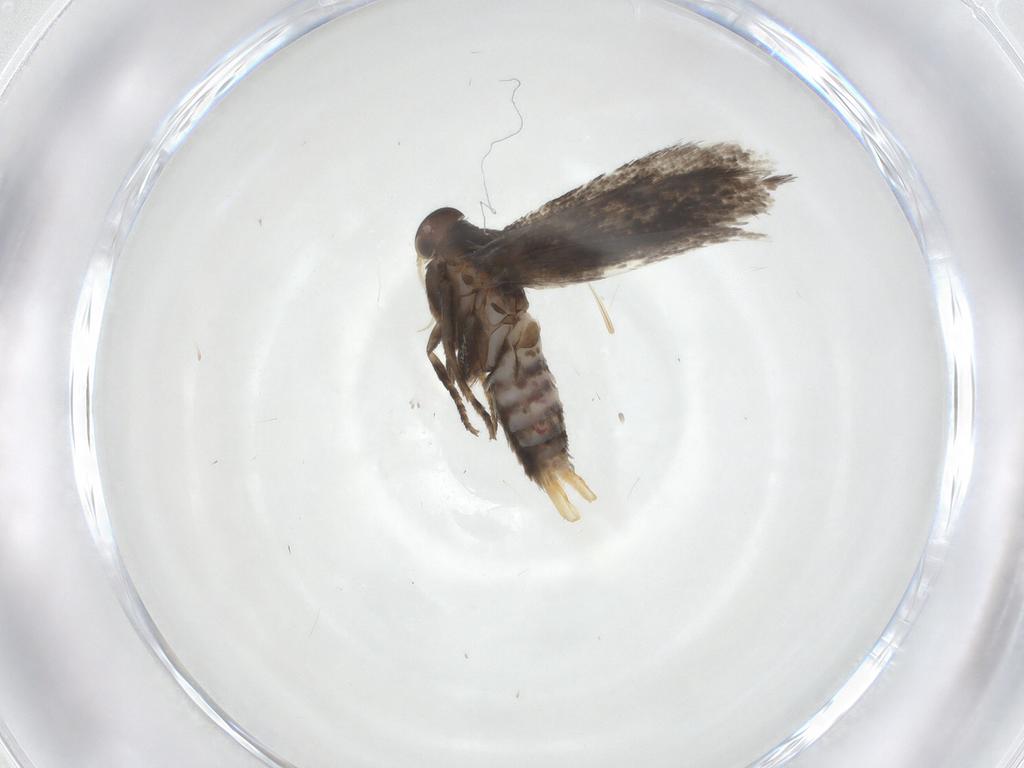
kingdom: Animalia
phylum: Arthropoda
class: Insecta
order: Lepidoptera
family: Elachistidae
